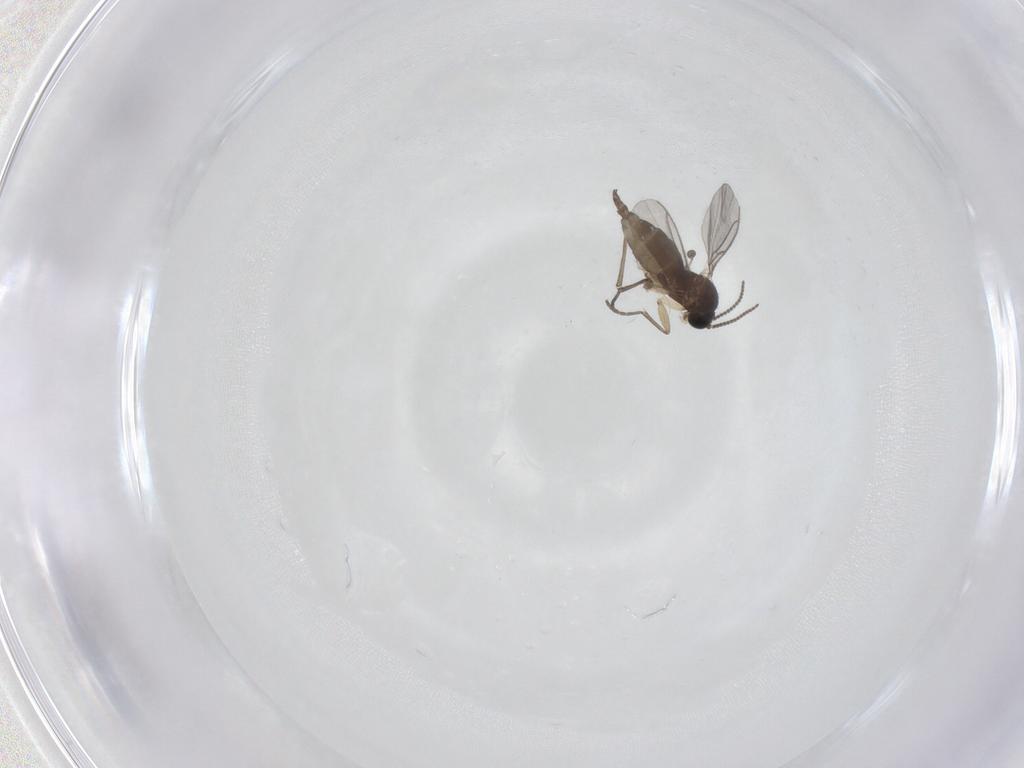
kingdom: Animalia
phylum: Arthropoda
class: Insecta
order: Diptera
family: Sciaridae
